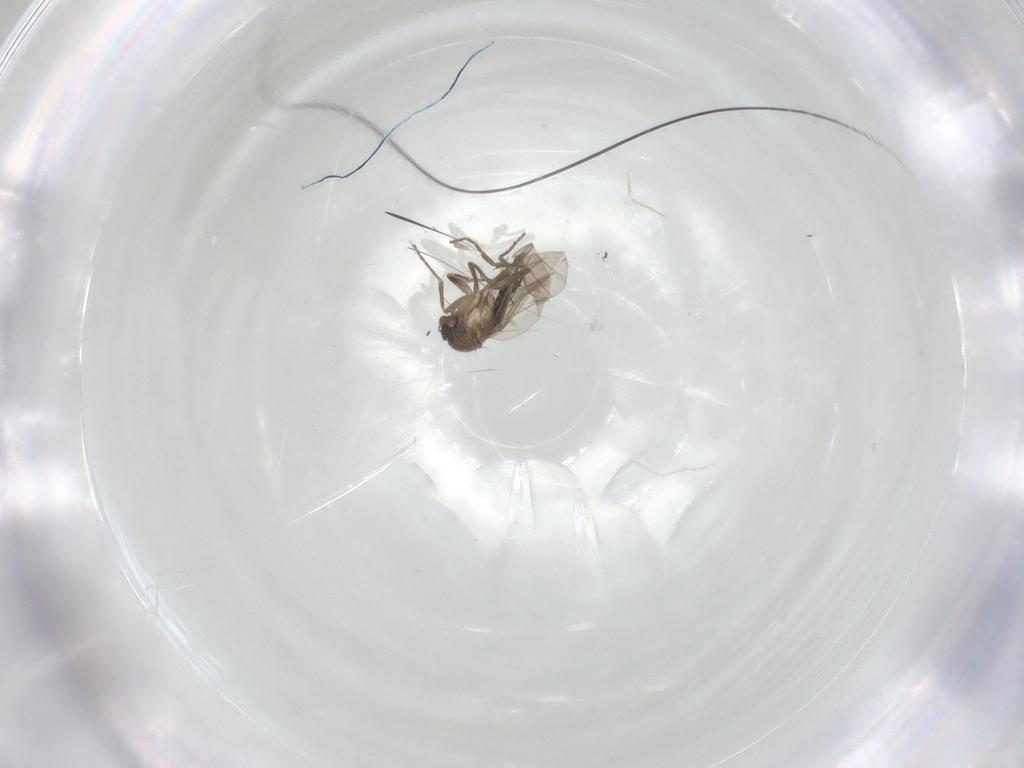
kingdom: Animalia
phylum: Arthropoda
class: Insecta
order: Diptera
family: Phoridae
